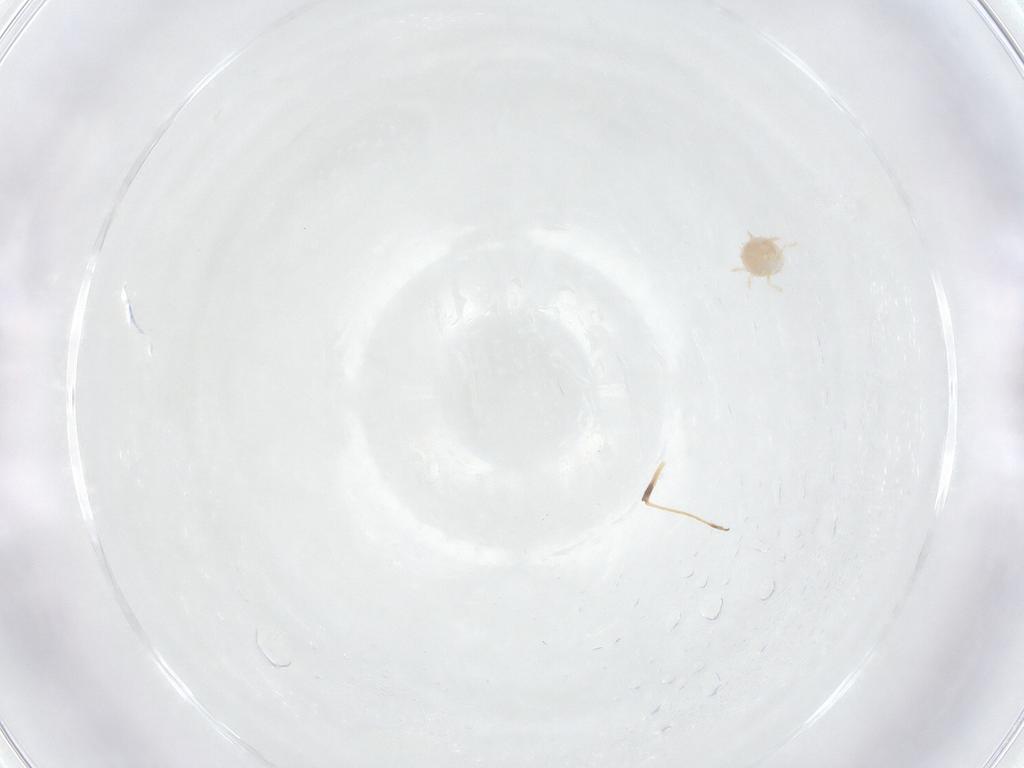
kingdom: Animalia
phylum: Arthropoda
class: Insecta
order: Diptera
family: Ceratopogonidae
